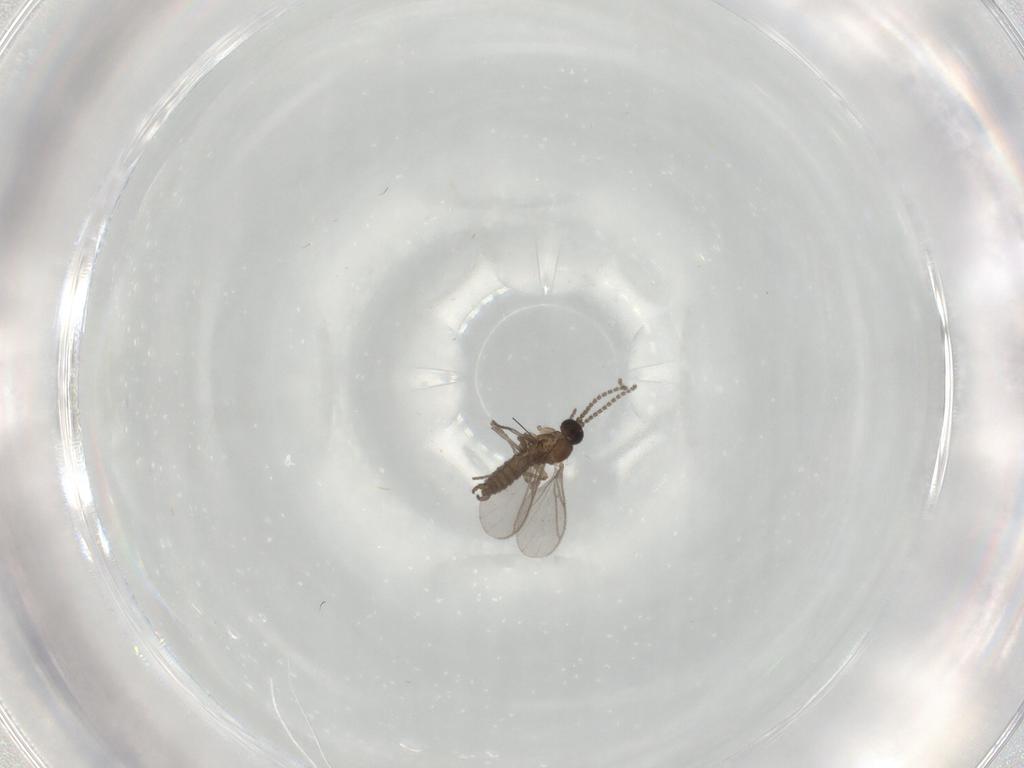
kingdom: Animalia
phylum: Arthropoda
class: Insecta
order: Diptera
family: Sciaridae
